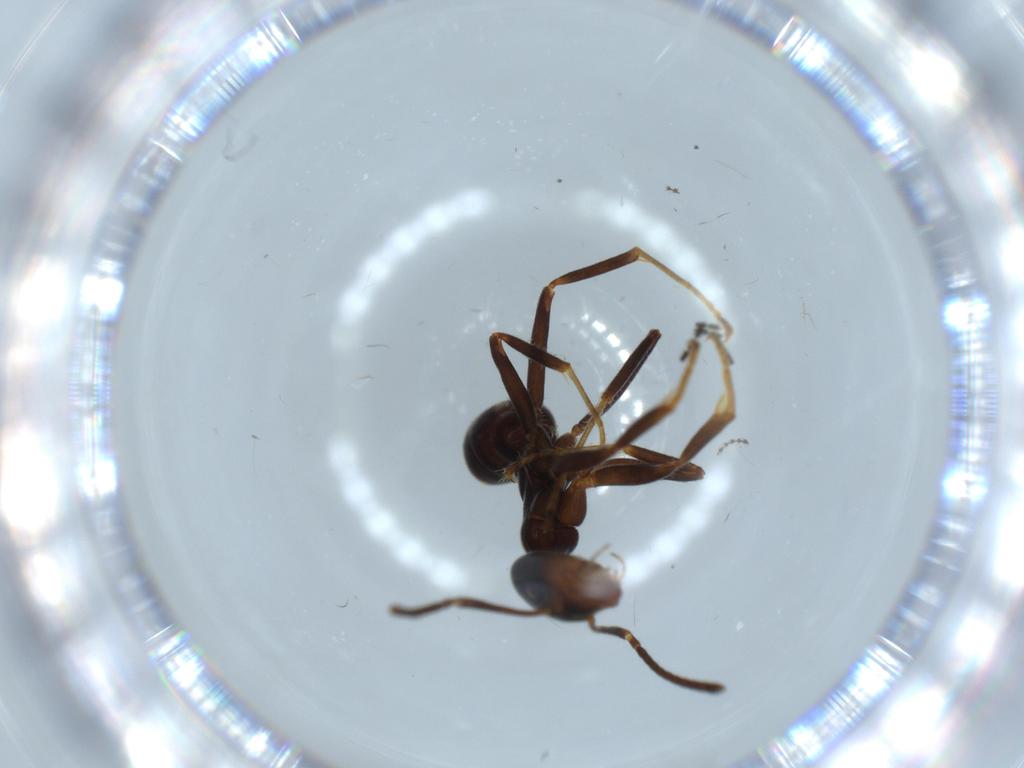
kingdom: Animalia
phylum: Arthropoda
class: Insecta
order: Hymenoptera
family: Formicidae
